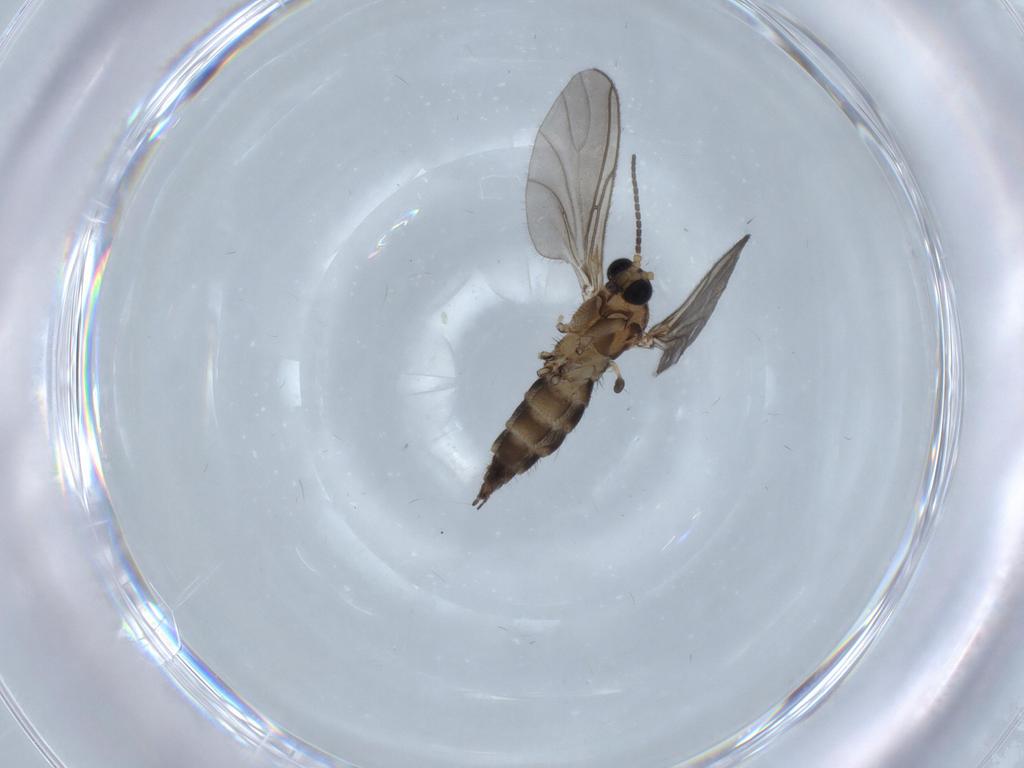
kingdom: Animalia
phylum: Arthropoda
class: Insecta
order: Diptera
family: Sciaridae
